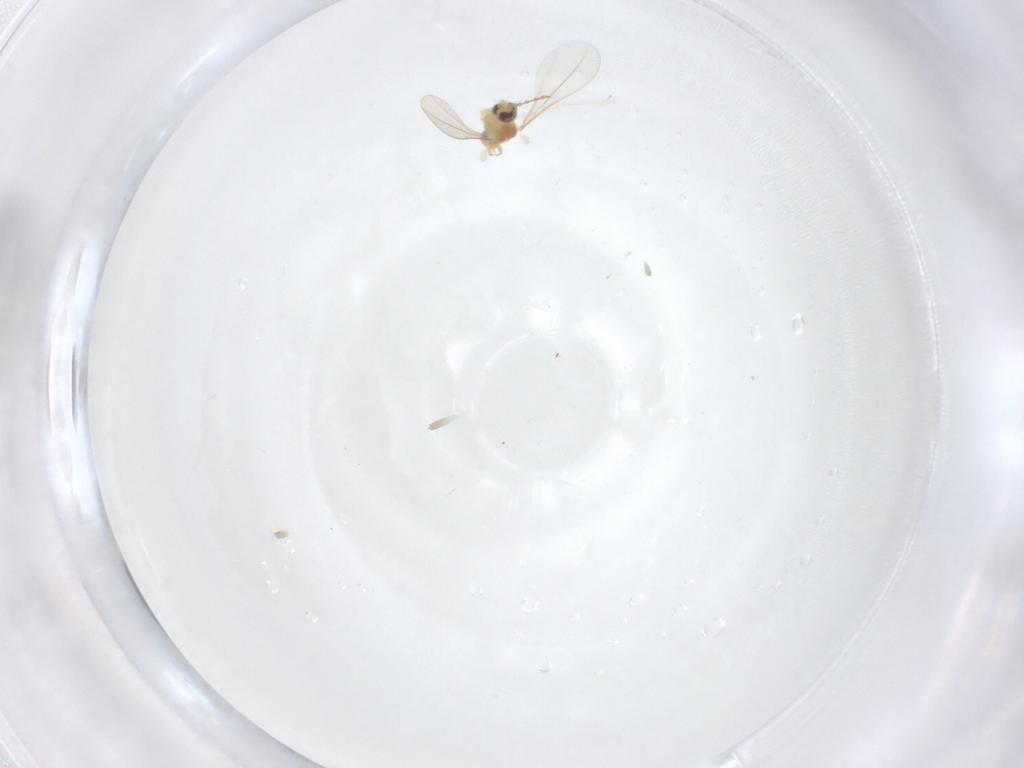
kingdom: Animalia
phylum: Arthropoda
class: Insecta
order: Diptera
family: Cecidomyiidae
